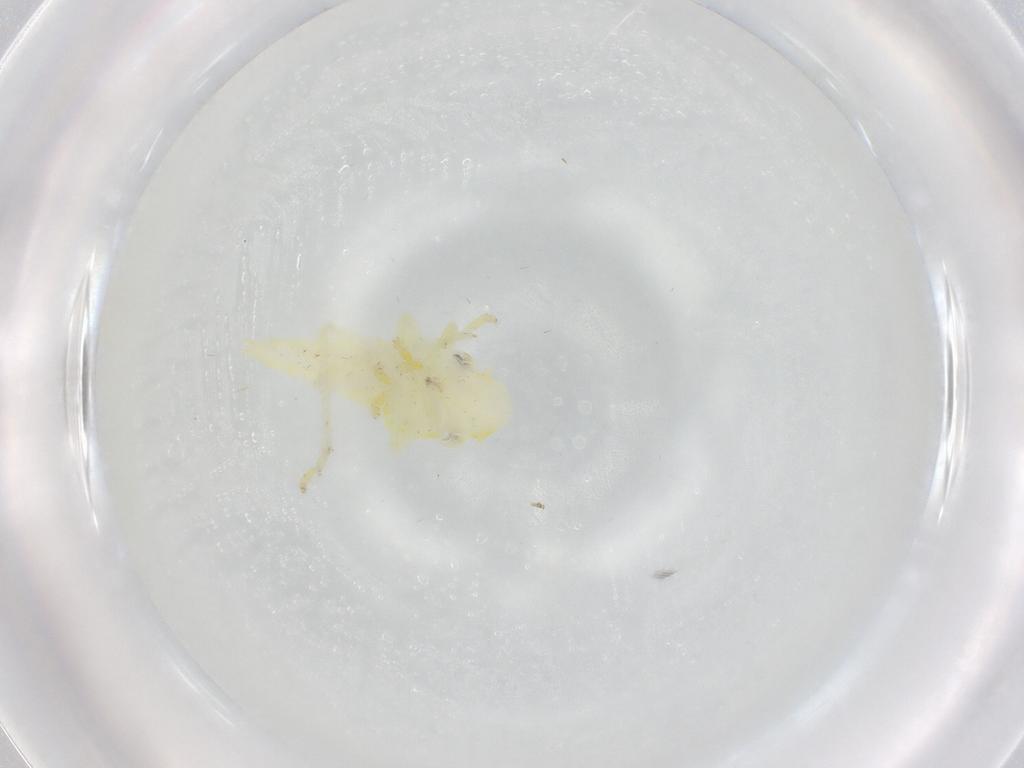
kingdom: Animalia
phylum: Arthropoda
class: Insecta
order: Hemiptera
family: Cicadellidae
